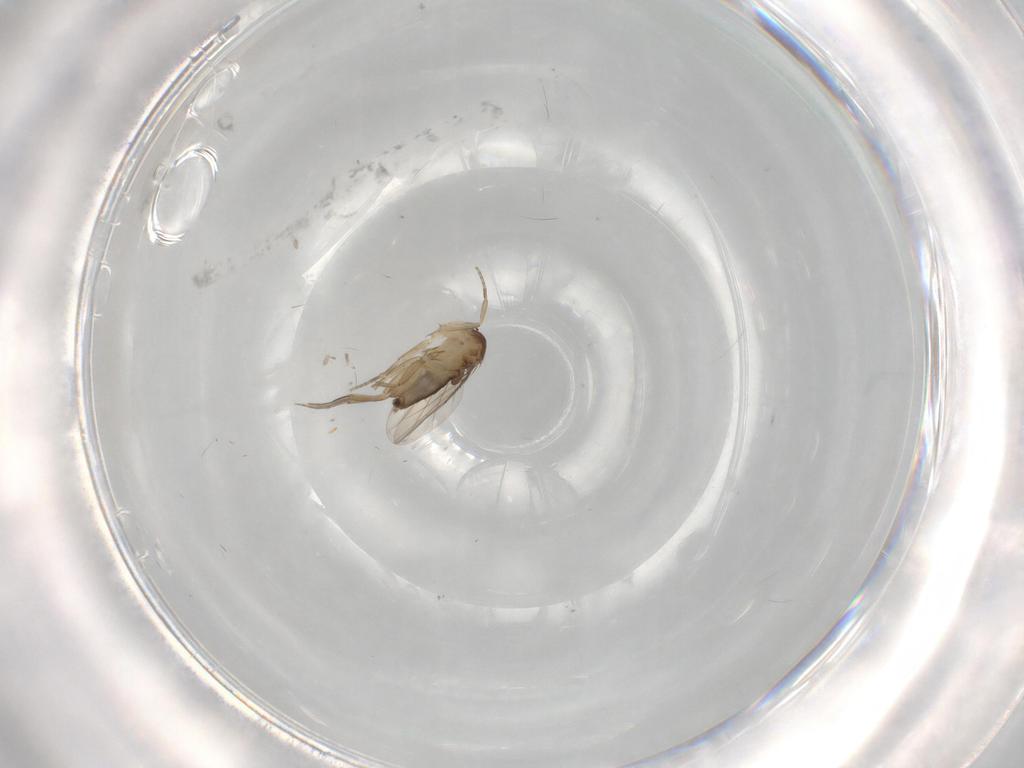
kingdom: Animalia
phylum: Arthropoda
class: Insecta
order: Diptera
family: Phoridae
